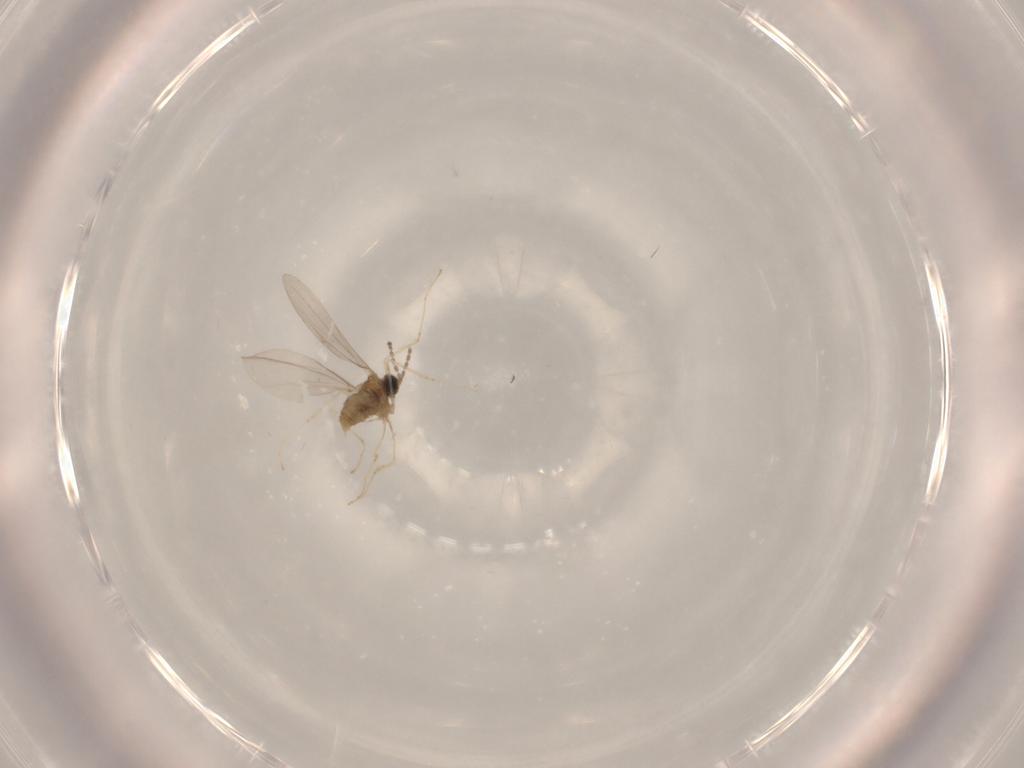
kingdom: Animalia
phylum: Arthropoda
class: Insecta
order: Diptera
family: Cecidomyiidae
